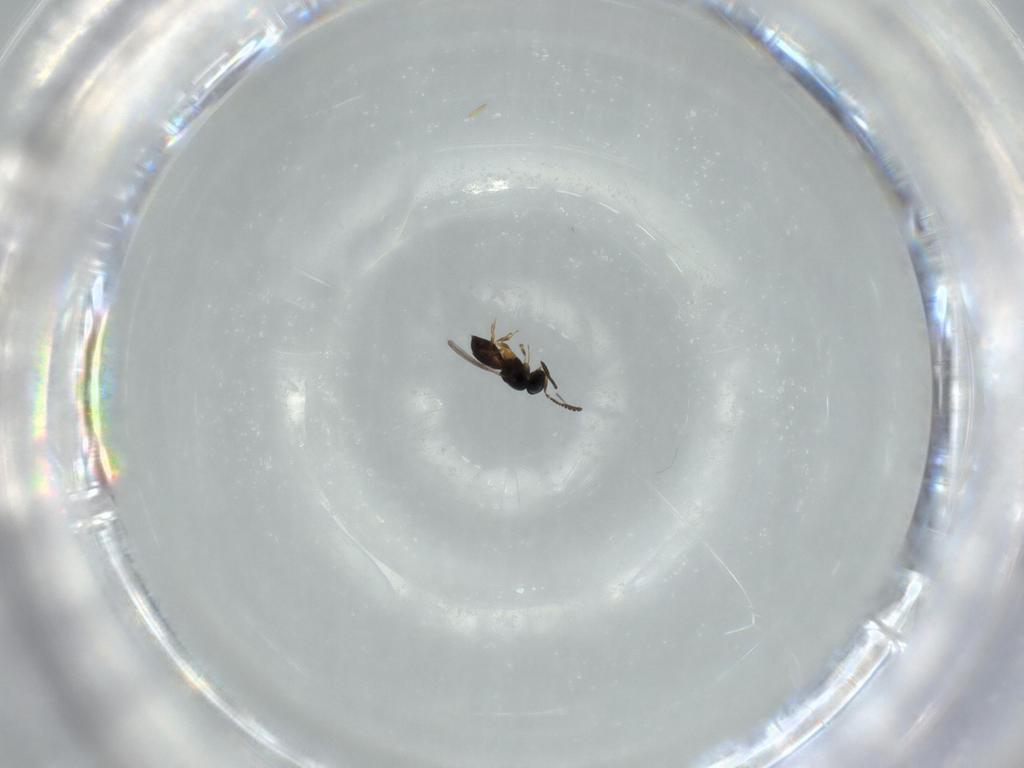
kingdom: Animalia
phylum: Arthropoda
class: Insecta
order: Hymenoptera
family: Scelionidae
